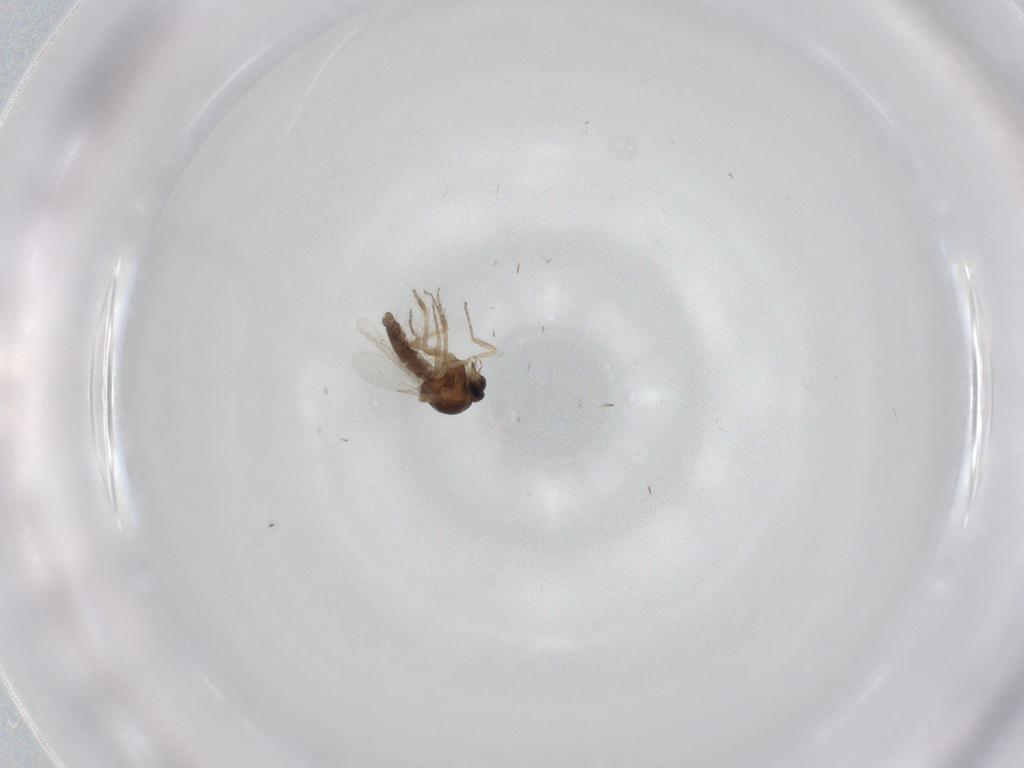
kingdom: Animalia
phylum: Arthropoda
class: Insecta
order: Diptera
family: Ceratopogonidae
